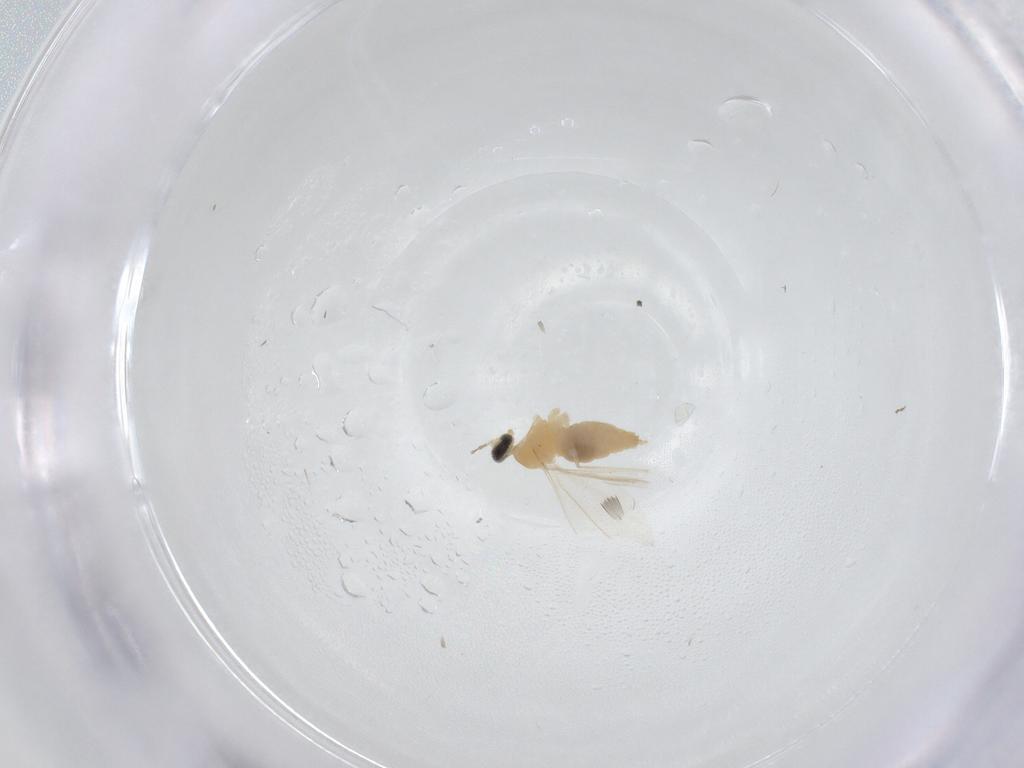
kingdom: Animalia
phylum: Arthropoda
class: Insecta
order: Diptera
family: Cecidomyiidae
